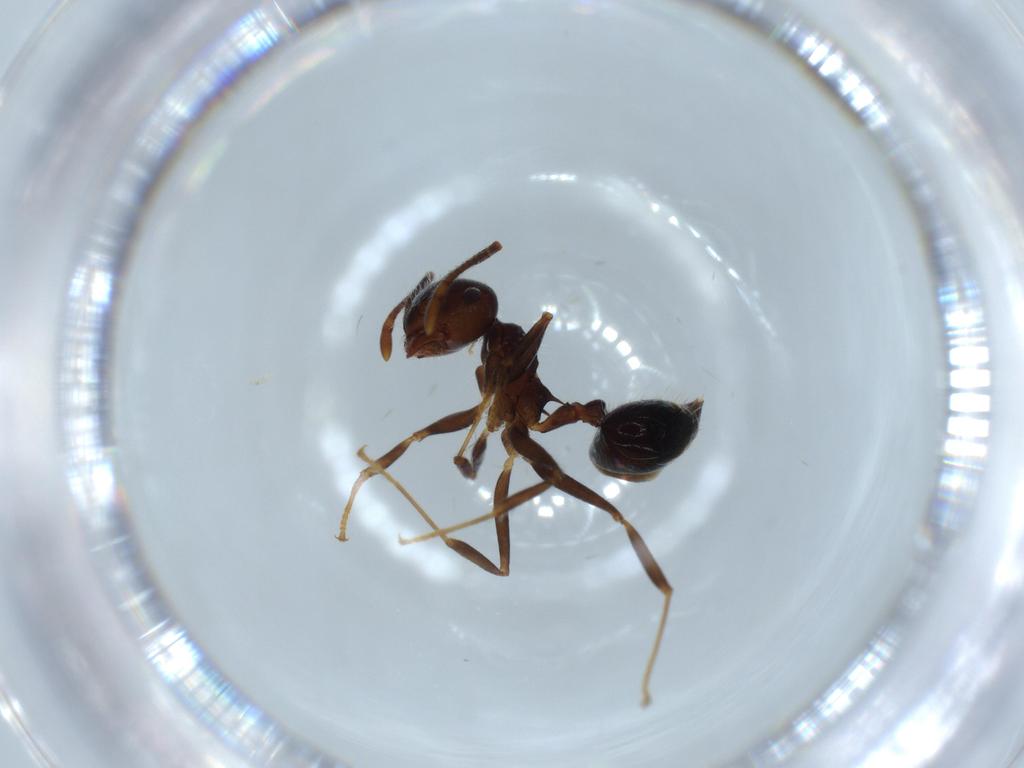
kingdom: Animalia
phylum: Arthropoda
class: Insecta
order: Hymenoptera
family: Formicidae
